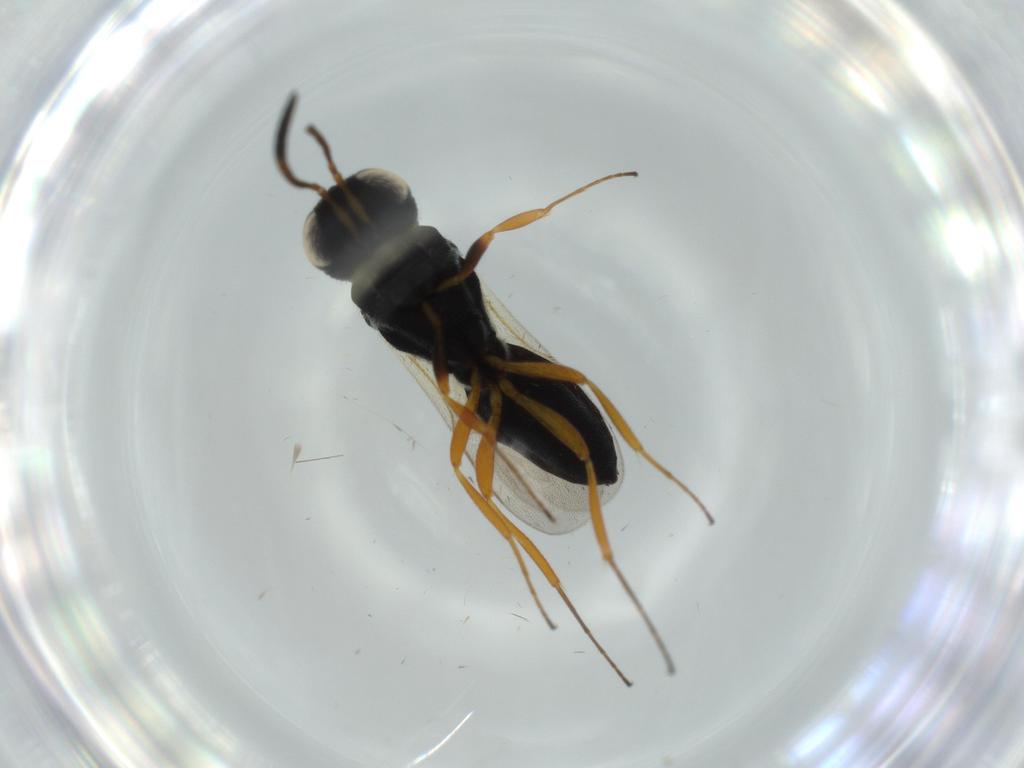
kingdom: Animalia
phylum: Arthropoda
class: Insecta
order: Hymenoptera
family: Scelionidae
